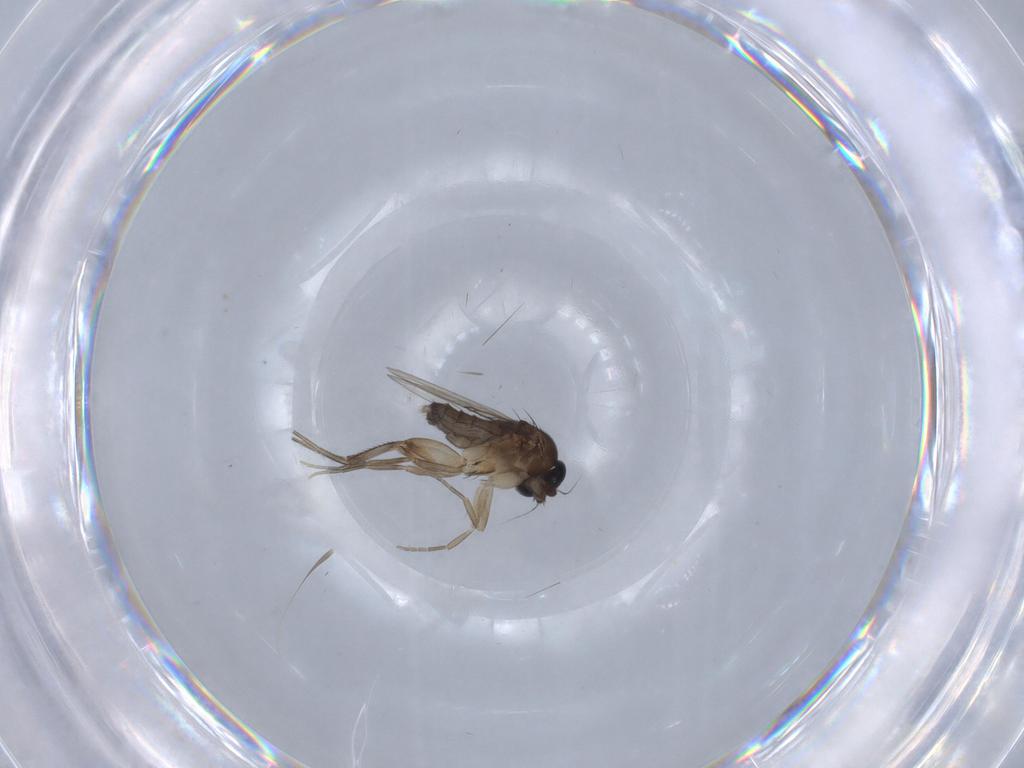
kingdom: Animalia
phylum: Arthropoda
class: Insecta
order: Diptera
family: Phoridae
